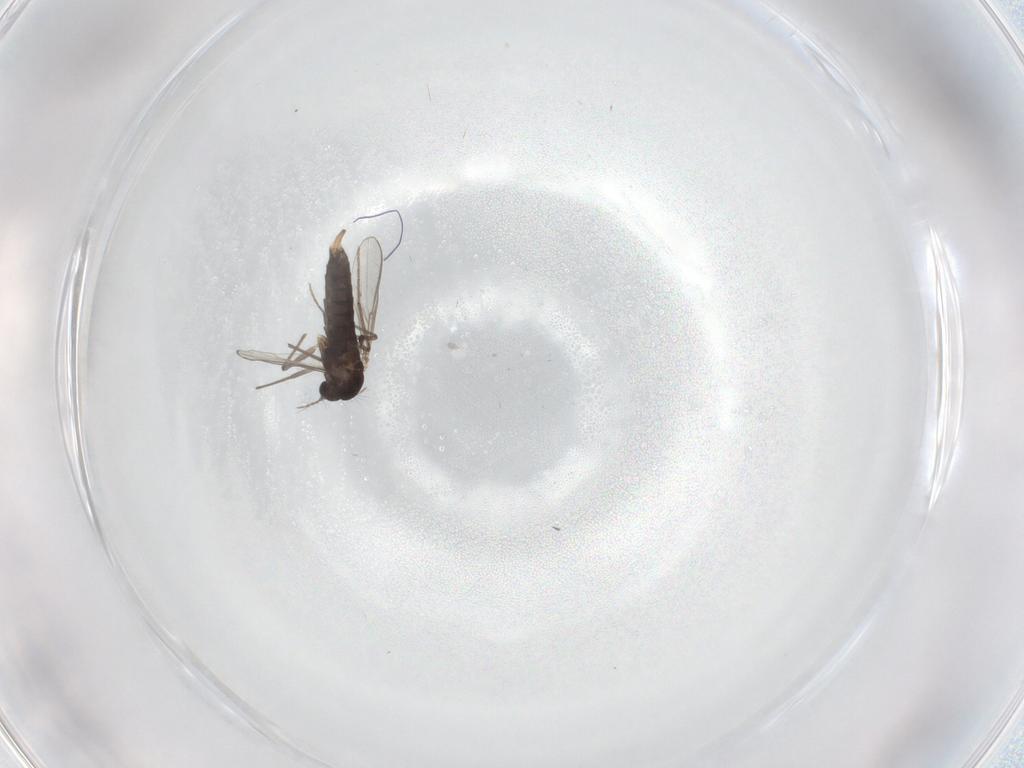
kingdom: Animalia
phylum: Arthropoda
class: Insecta
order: Diptera
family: Chironomidae
